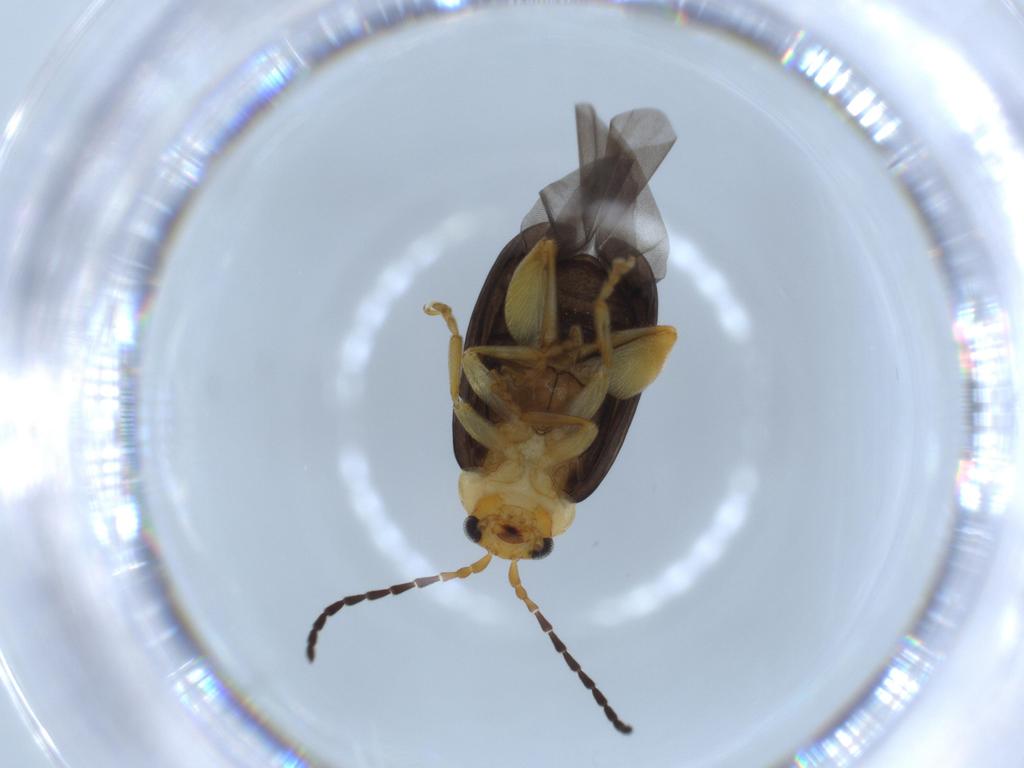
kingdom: Animalia
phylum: Arthropoda
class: Insecta
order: Coleoptera
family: Chrysomelidae
